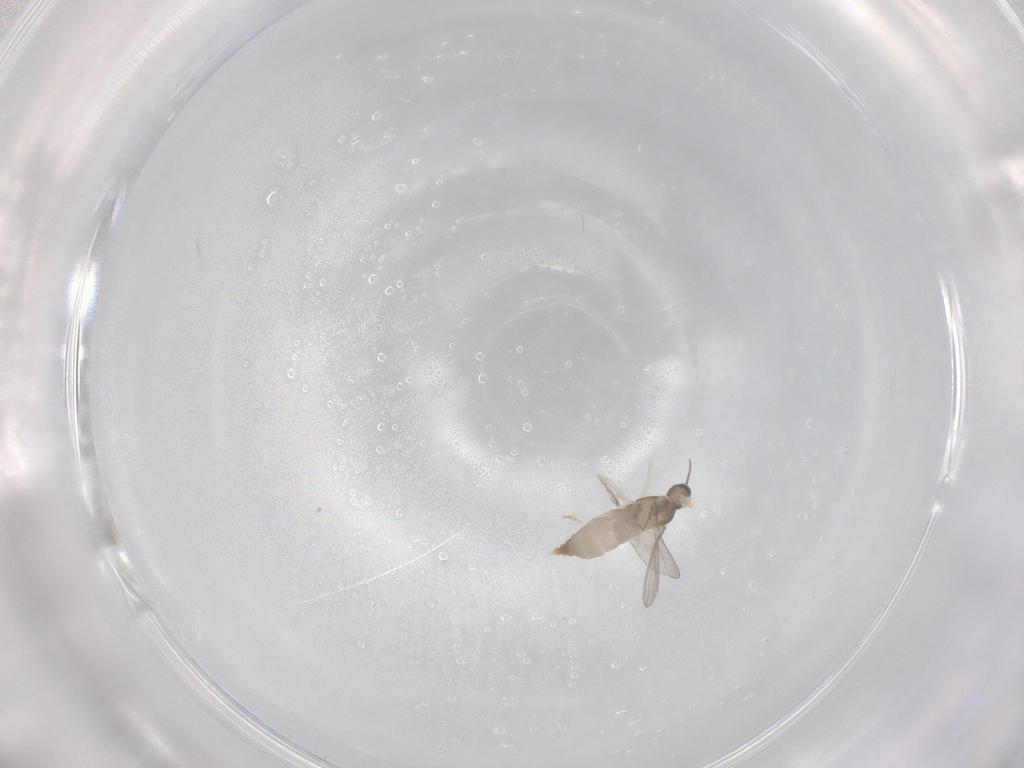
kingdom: Animalia
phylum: Arthropoda
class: Insecta
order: Diptera
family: Phoridae
